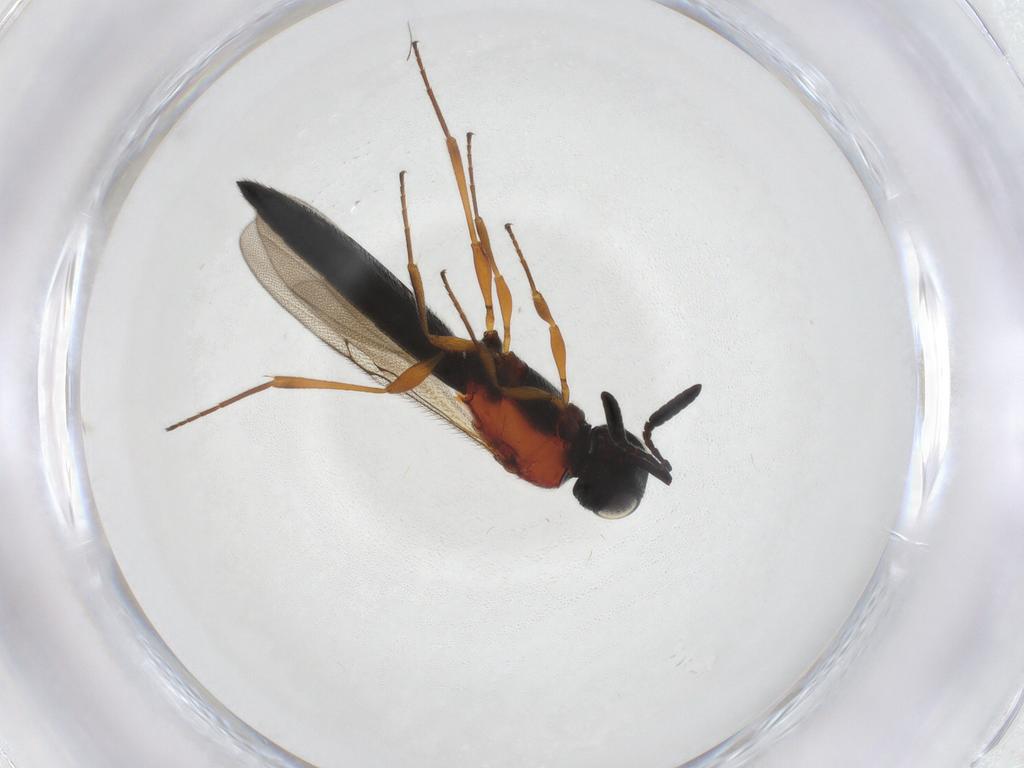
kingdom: Animalia
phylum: Arthropoda
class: Insecta
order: Hymenoptera
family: Scelionidae
